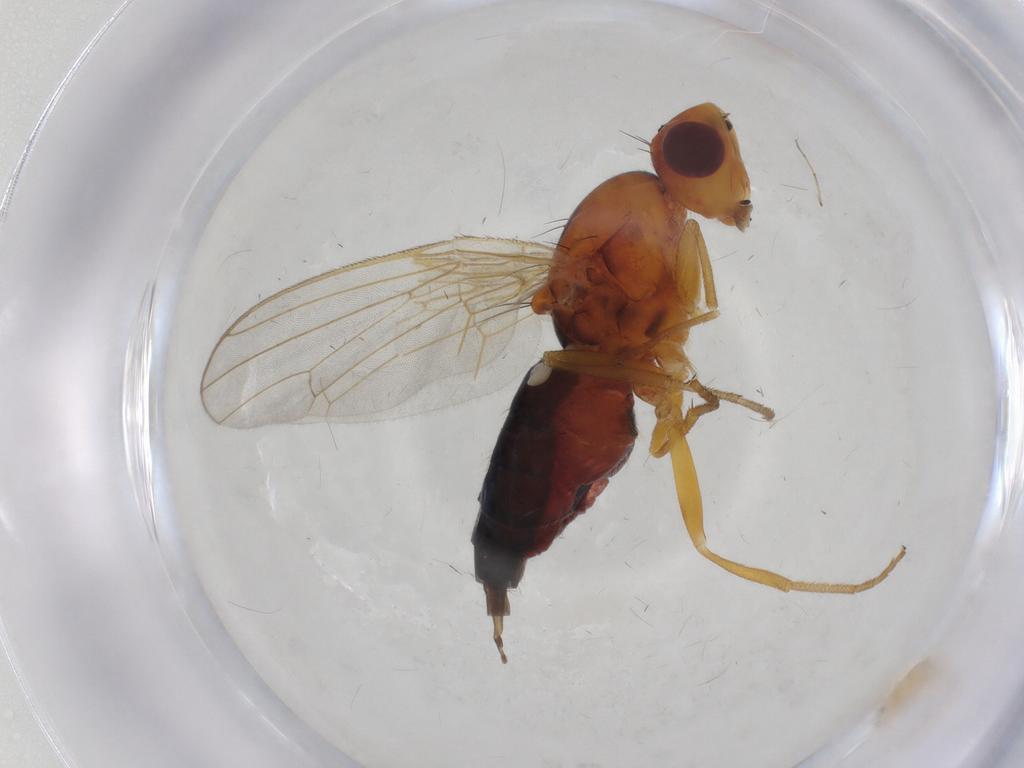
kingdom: Animalia
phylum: Arthropoda
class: Insecta
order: Diptera
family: Chironomidae
